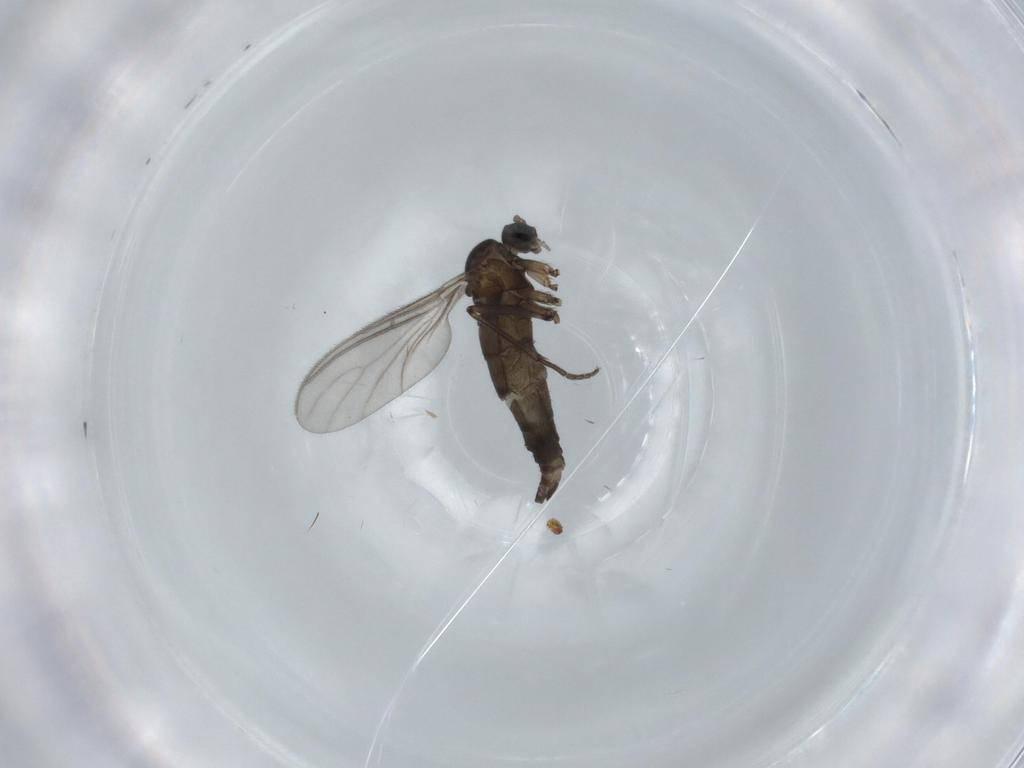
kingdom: Animalia
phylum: Arthropoda
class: Insecta
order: Diptera
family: Sciaridae
